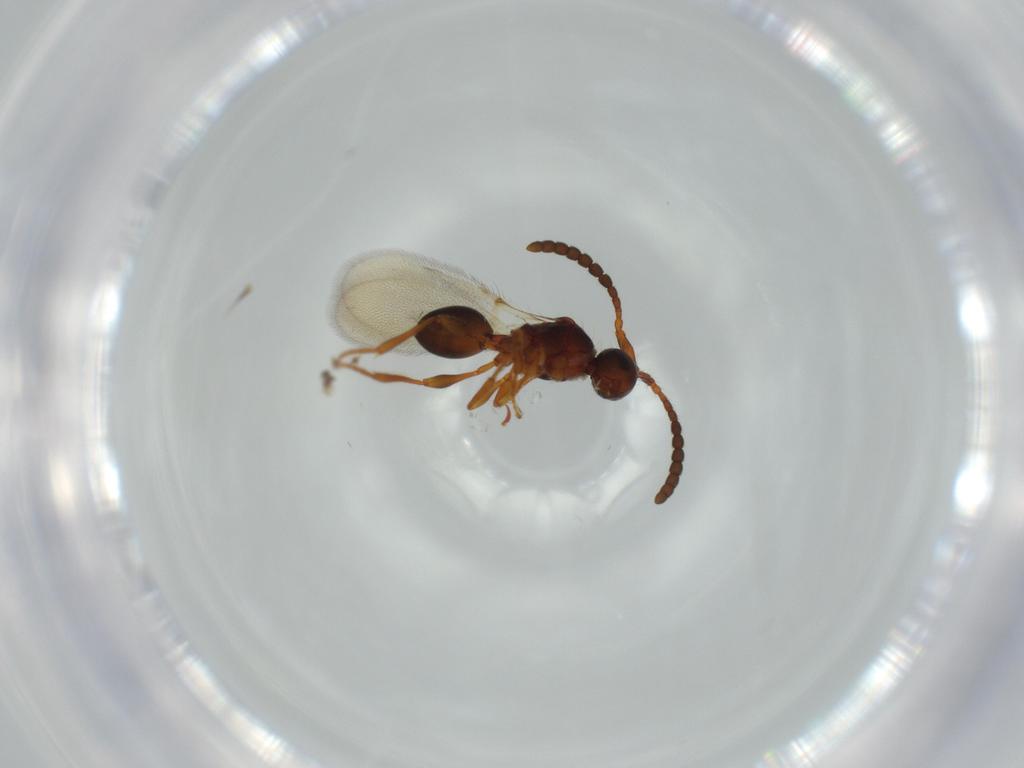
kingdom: Animalia
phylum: Arthropoda
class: Insecta
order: Hymenoptera
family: Diapriidae
